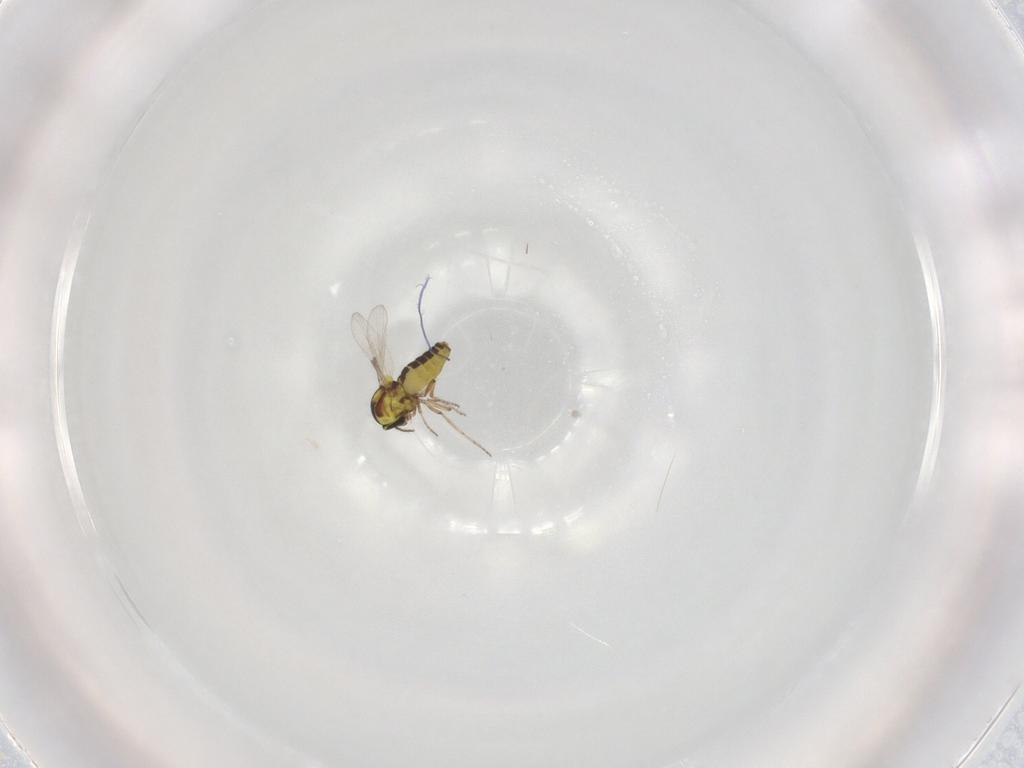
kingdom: Animalia
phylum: Arthropoda
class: Insecta
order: Diptera
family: Ceratopogonidae
